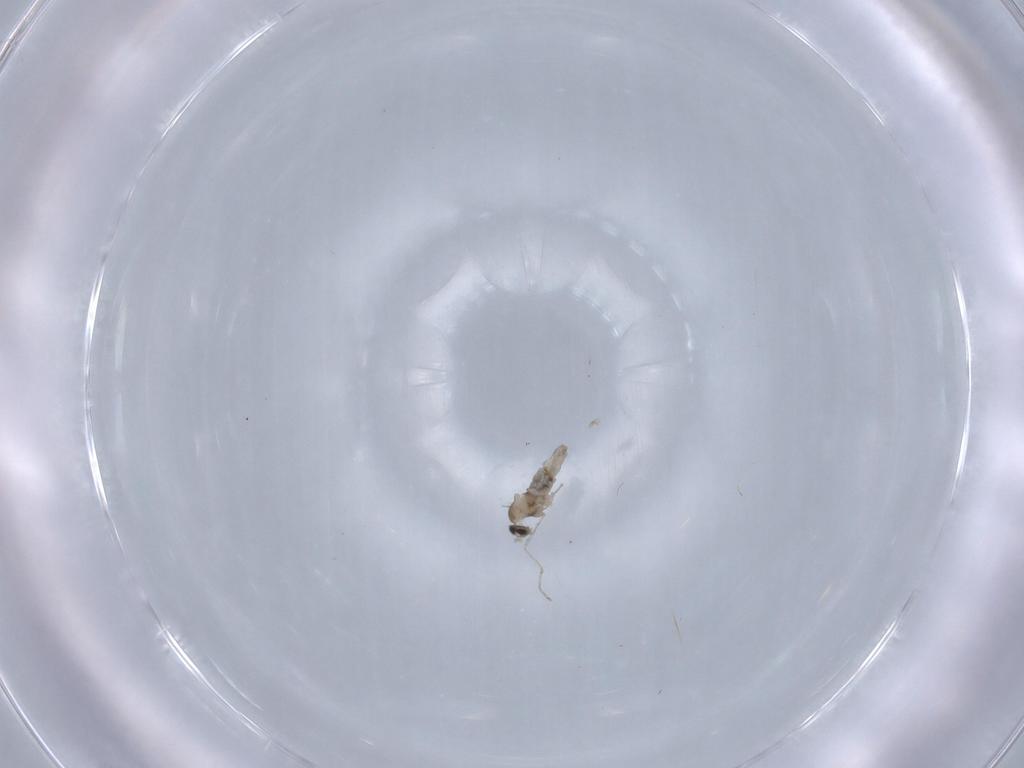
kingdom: Animalia
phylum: Arthropoda
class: Insecta
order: Diptera
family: Cecidomyiidae
